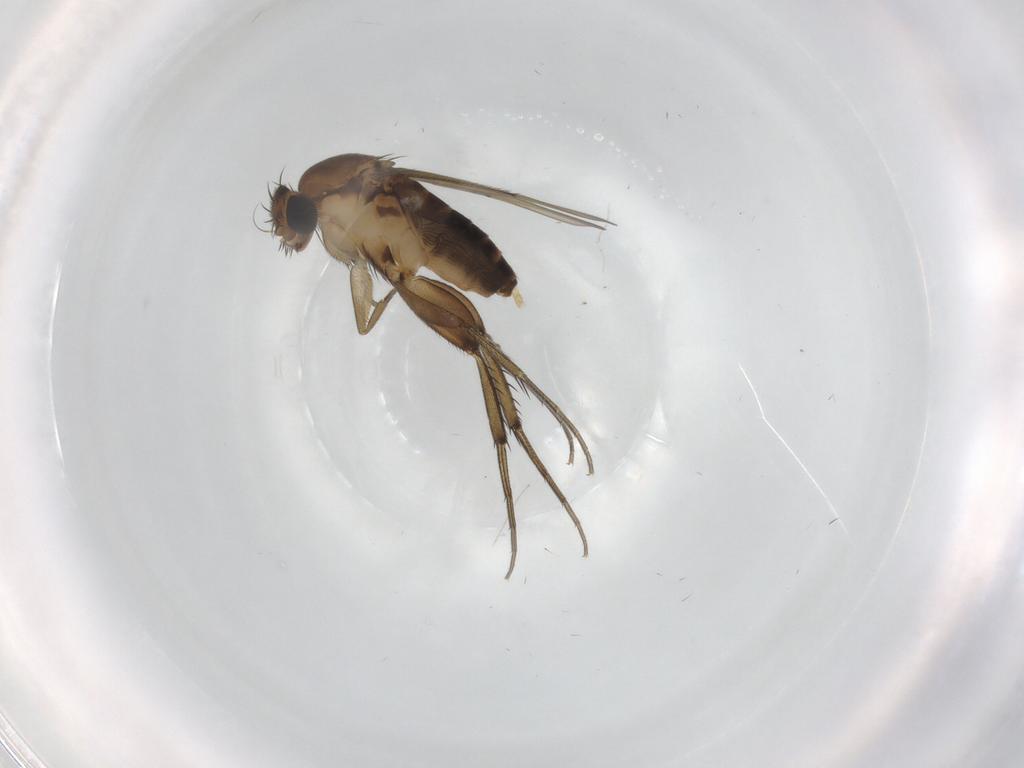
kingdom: Animalia
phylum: Arthropoda
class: Insecta
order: Diptera
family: Phoridae
